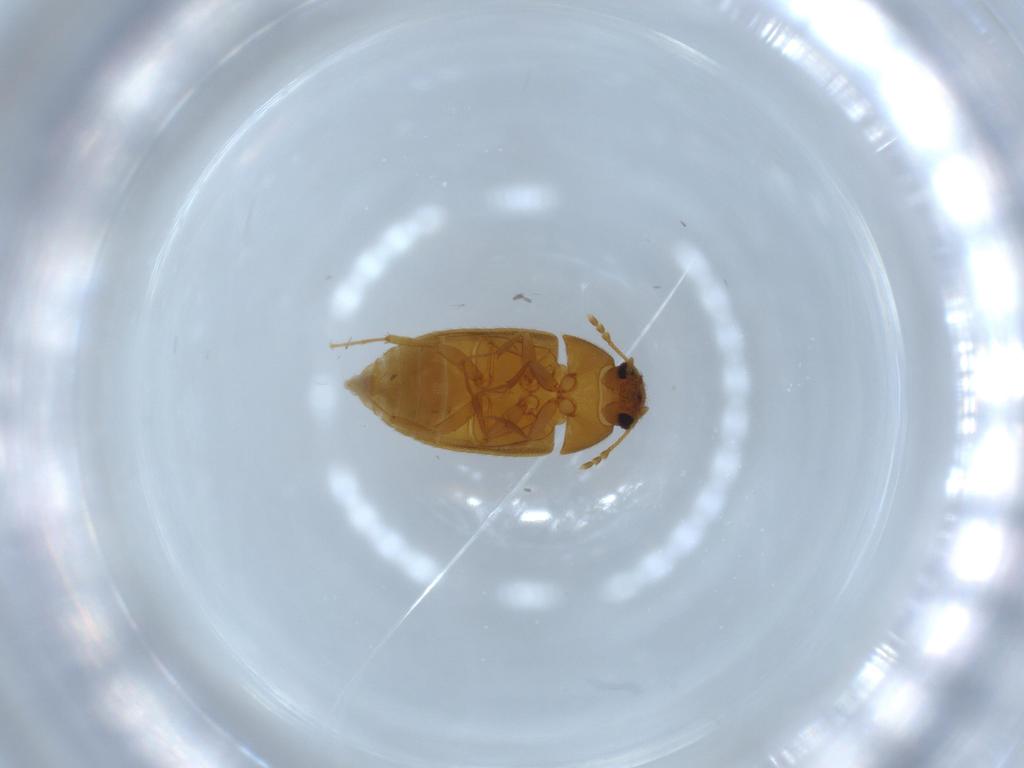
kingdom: Animalia
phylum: Arthropoda
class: Insecta
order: Coleoptera
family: Mycetophagidae
